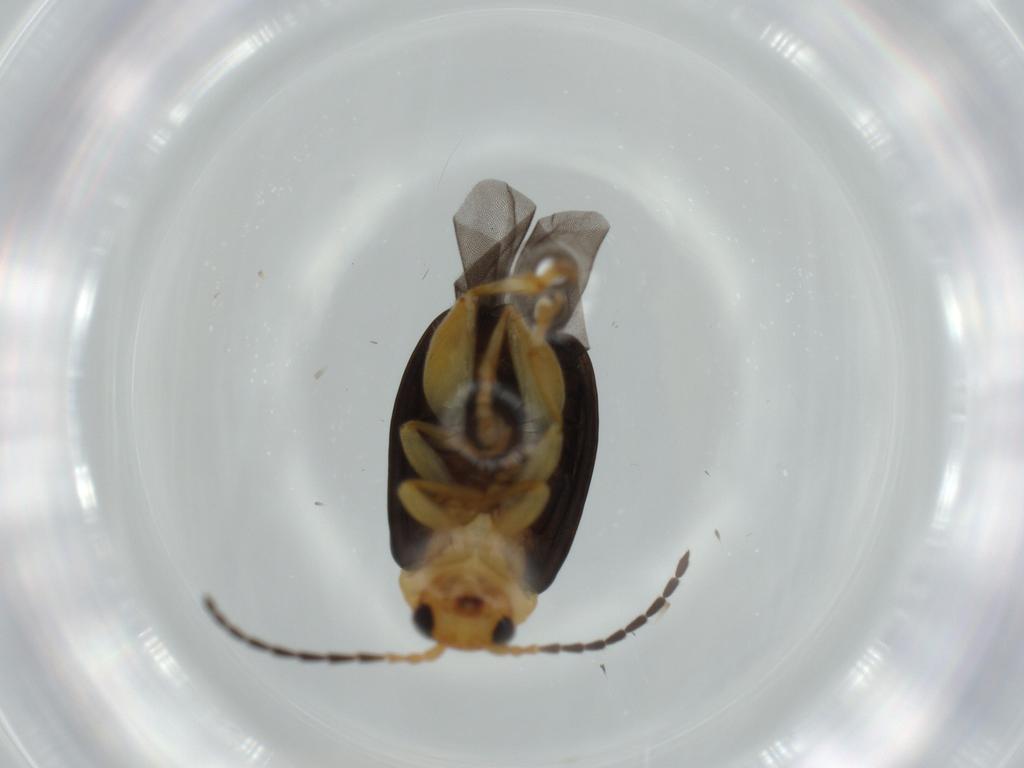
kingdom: Animalia
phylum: Arthropoda
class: Insecta
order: Coleoptera
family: Chrysomelidae
